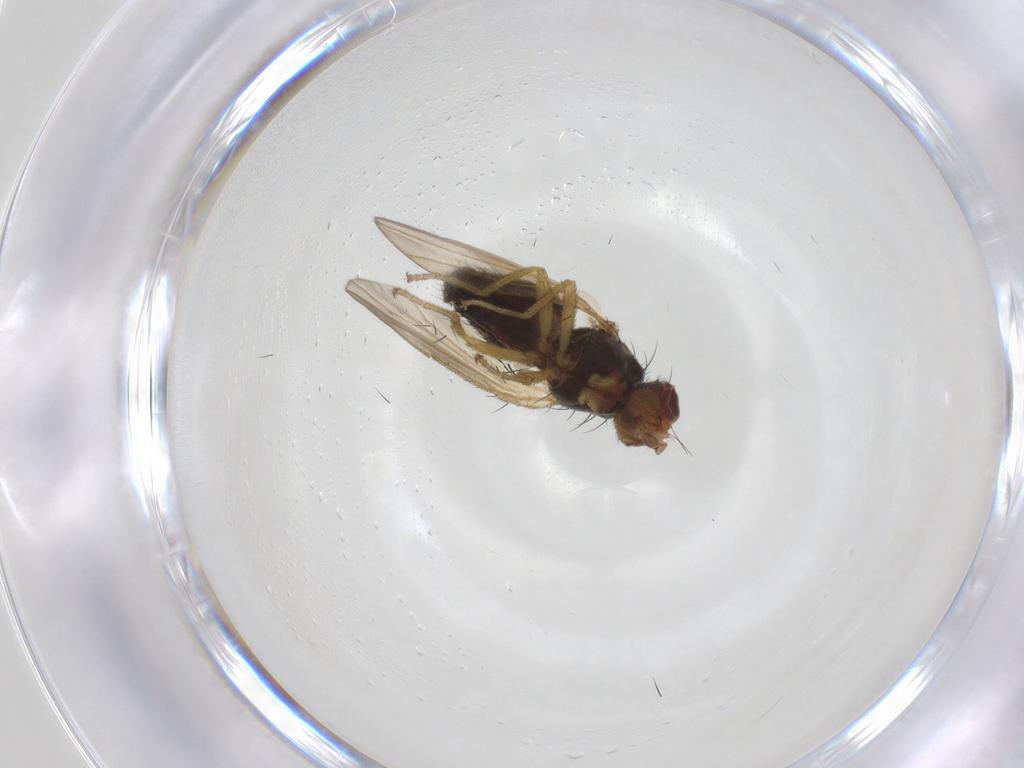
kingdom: Animalia
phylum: Arthropoda
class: Insecta
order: Diptera
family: Heleomyzidae
